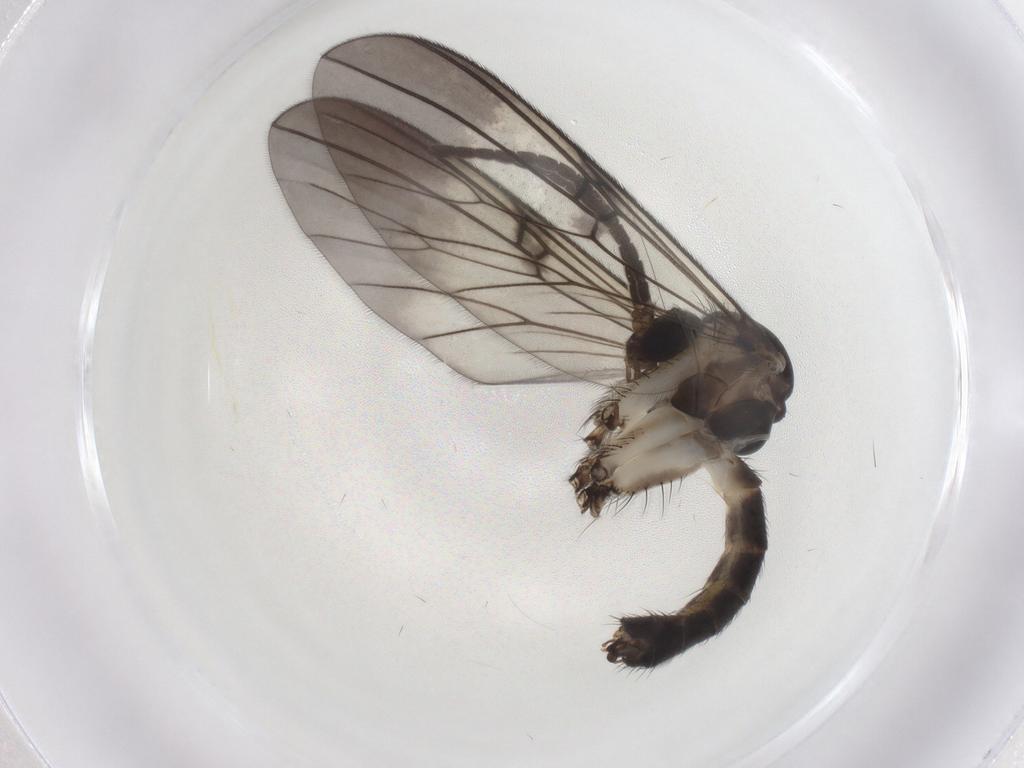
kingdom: Animalia
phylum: Arthropoda
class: Insecta
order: Diptera
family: Mycetophilidae
